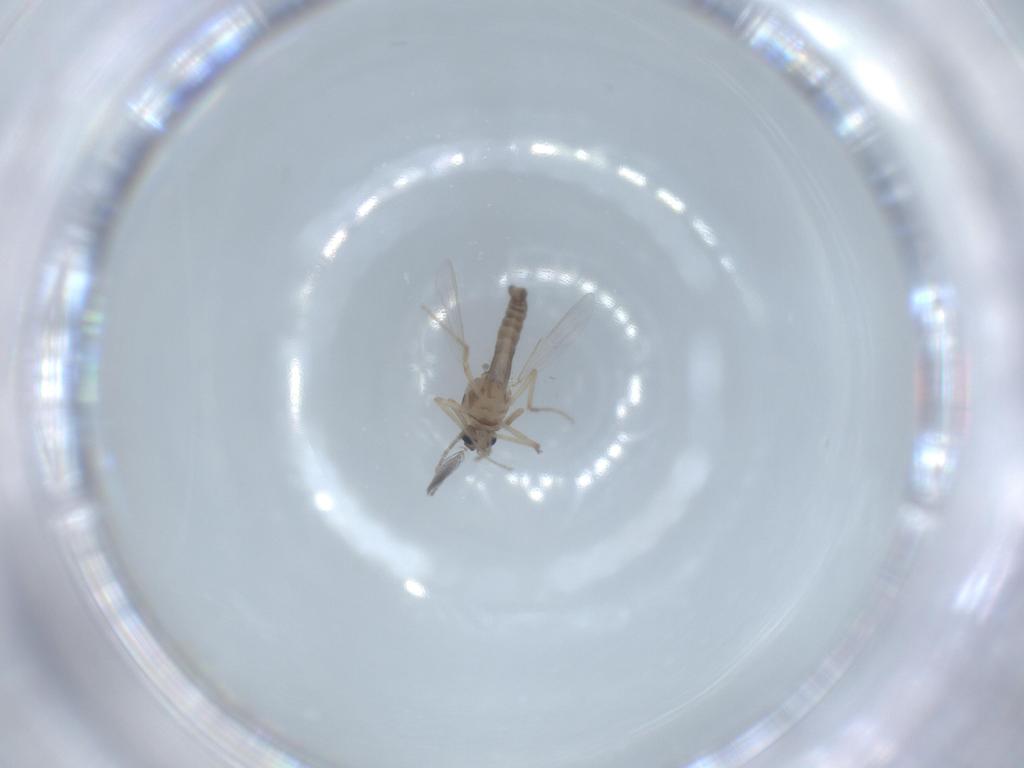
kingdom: Animalia
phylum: Arthropoda
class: Insecta
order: Diptera
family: Ceratopogonidae
